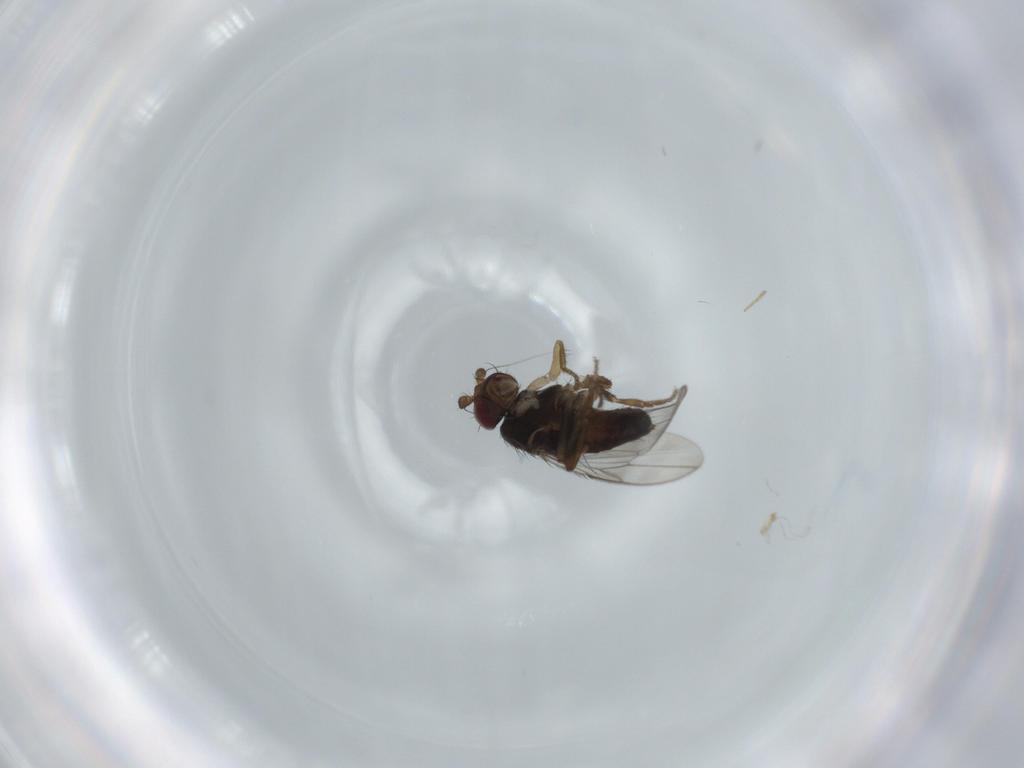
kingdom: Animalia
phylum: Arthropoda
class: Insecta
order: Diptera
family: Sphaeroceridae
